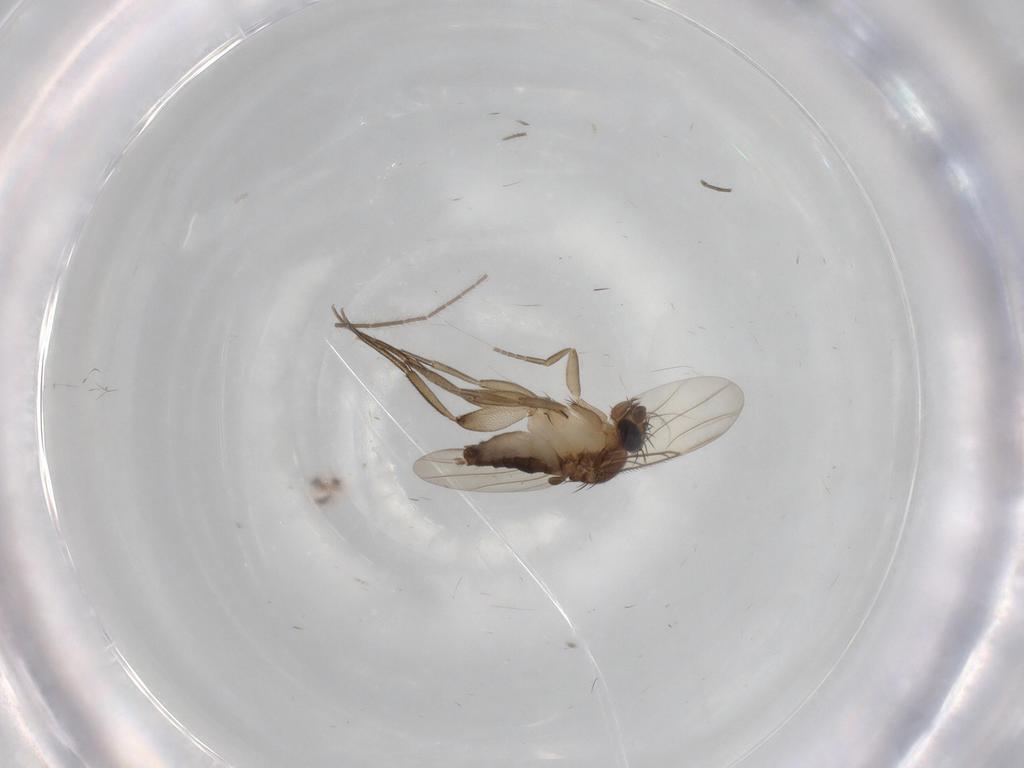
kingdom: Animalia
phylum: Arthropoda
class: Insecta
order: Diptera
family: Phoridae
